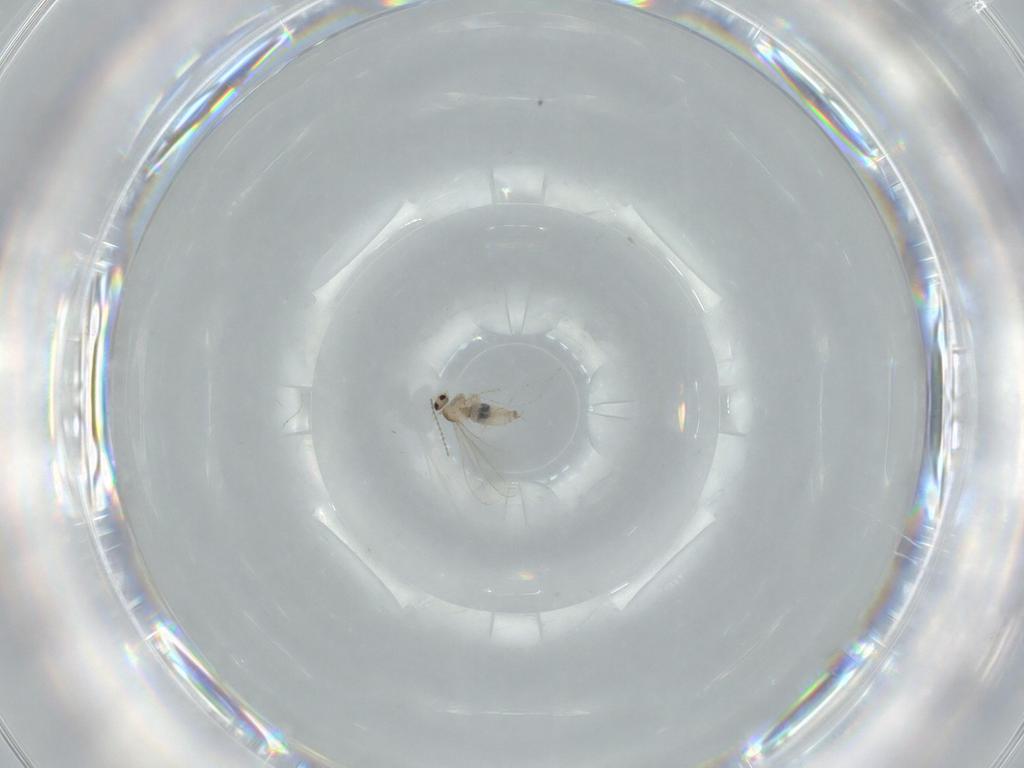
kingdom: Animalia
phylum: Arthropoda
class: Insecta
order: Diptera
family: Cecidomyiidae
